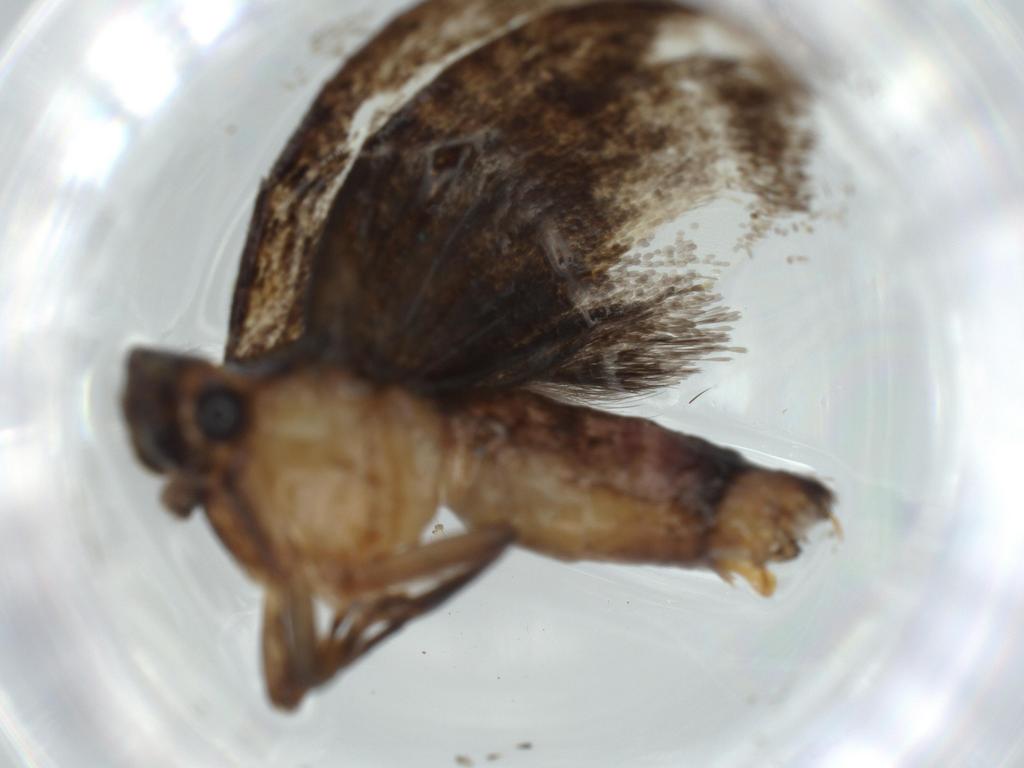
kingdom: Animalia
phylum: Arthropoda
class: Insecta
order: Lepidoptera
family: Tineidae
